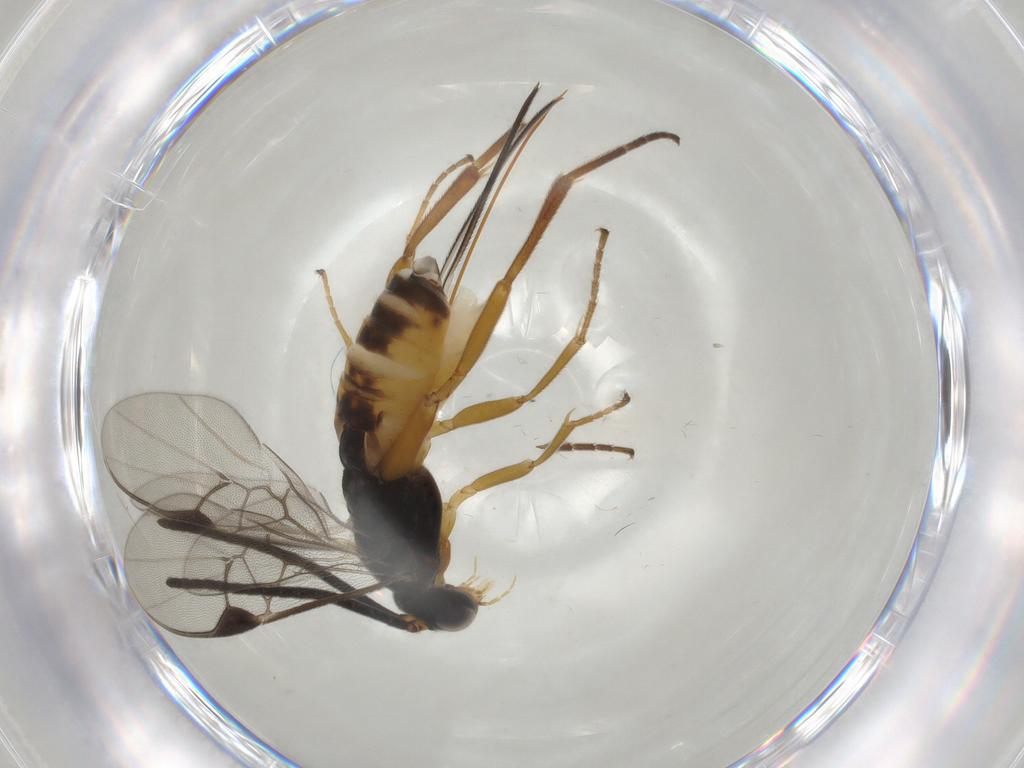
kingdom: Animalia
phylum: Arthropoda
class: Insecta
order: Hymenoptera
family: Braconidae
